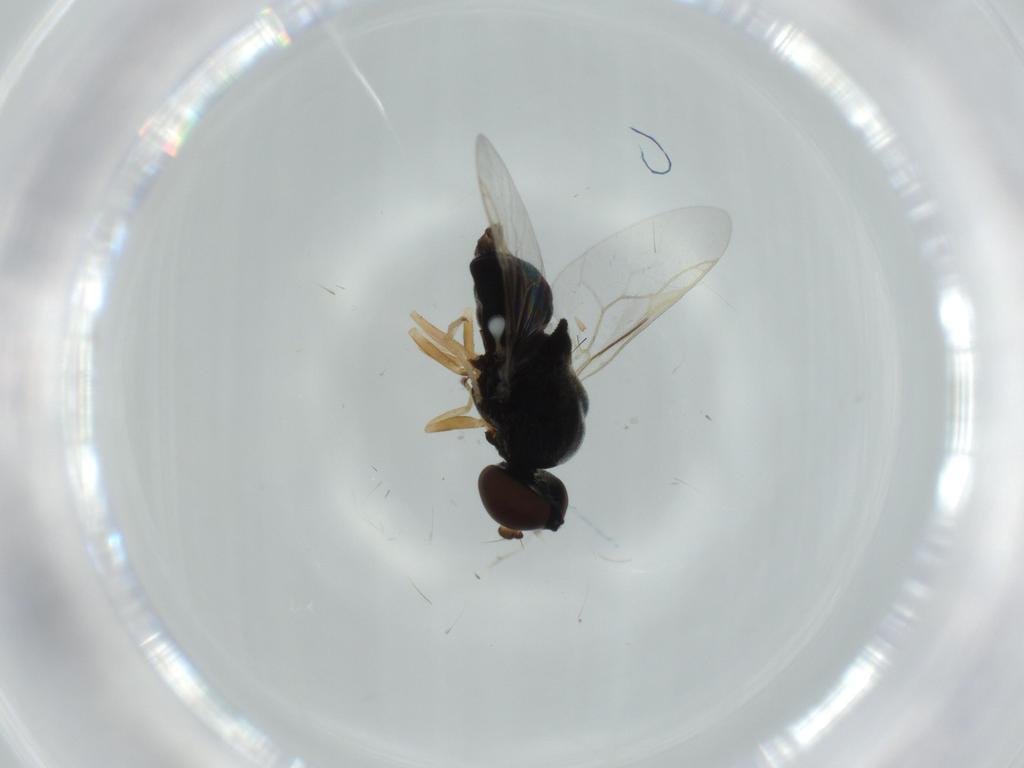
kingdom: Animalia
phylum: Arthropoda
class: Insecta
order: Diptera
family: Stratiomyidae
